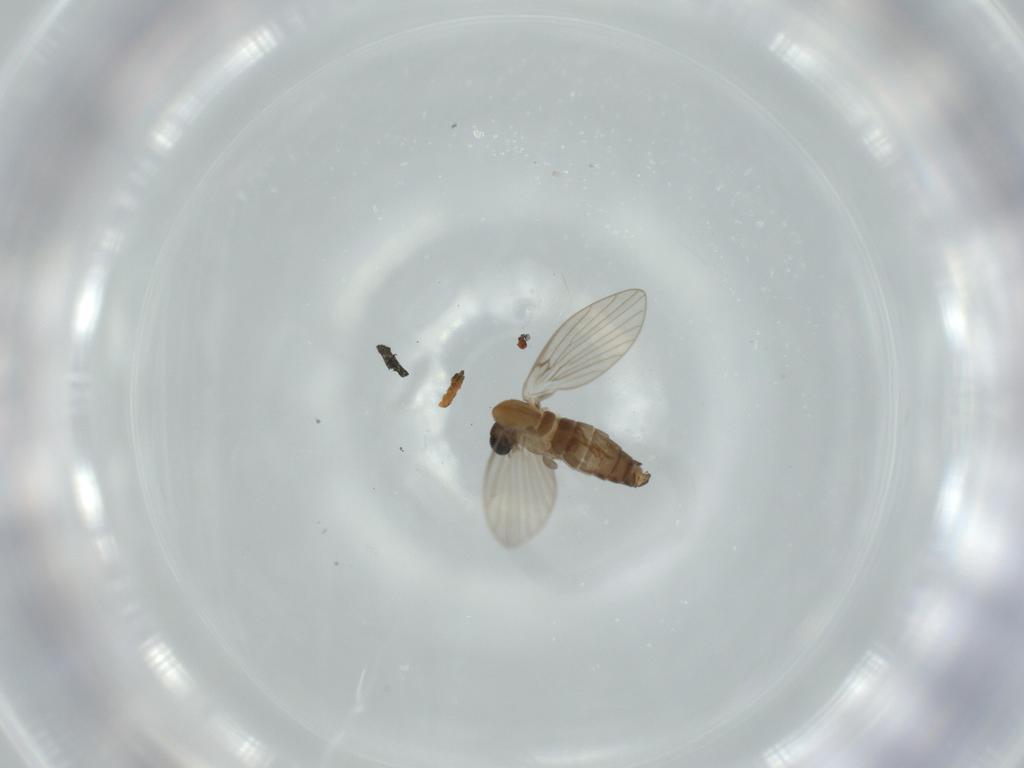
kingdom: Animalia
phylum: Arthropoda
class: Insecta
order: Diptera
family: Psychodidae
